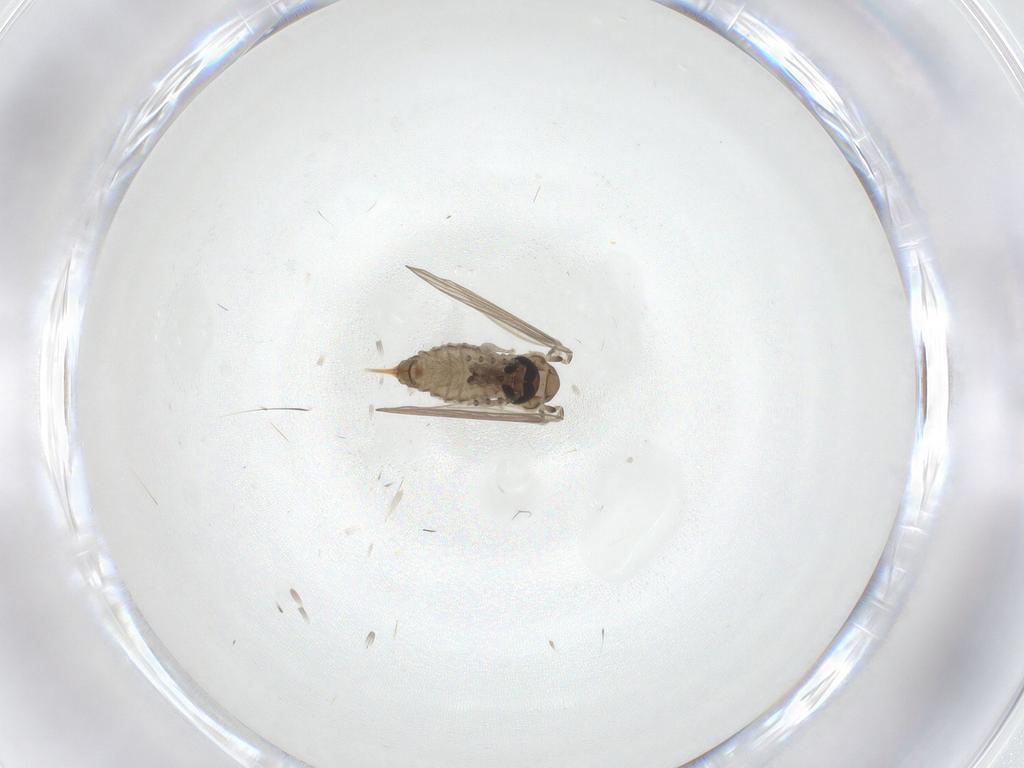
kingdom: Animalia
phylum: Arthropoda
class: Insecta
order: Diptera
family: Psychodidae
